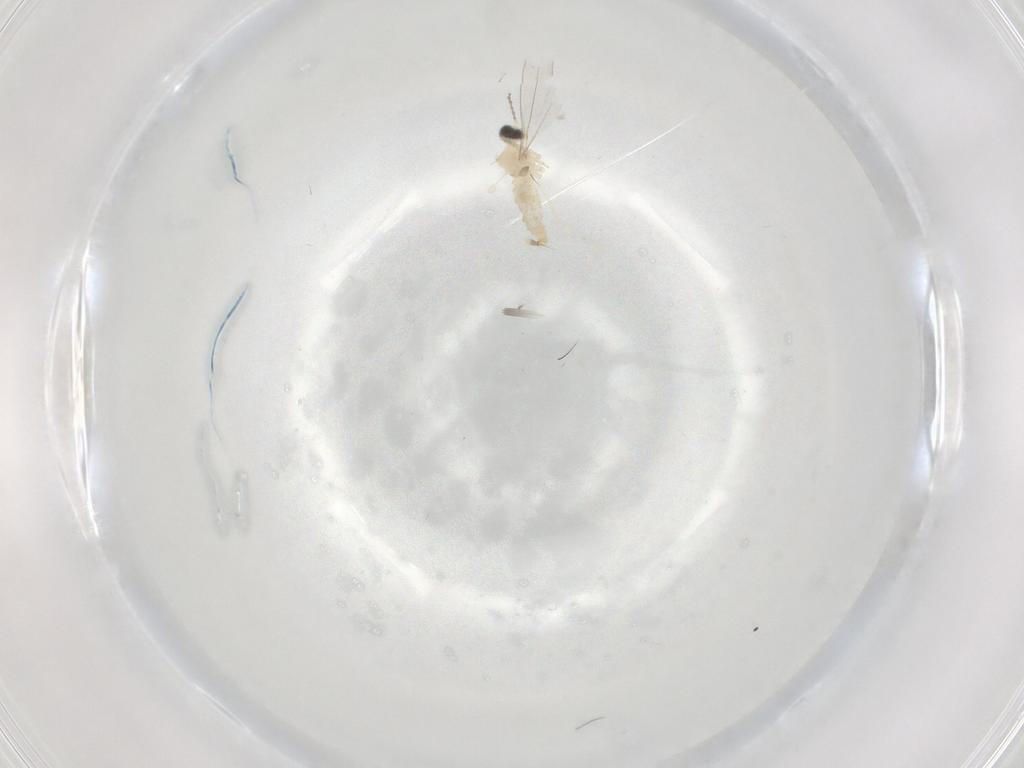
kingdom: Animalia
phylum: Arthropoda
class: Insecta
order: Diptera
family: Cecidomyiidae
